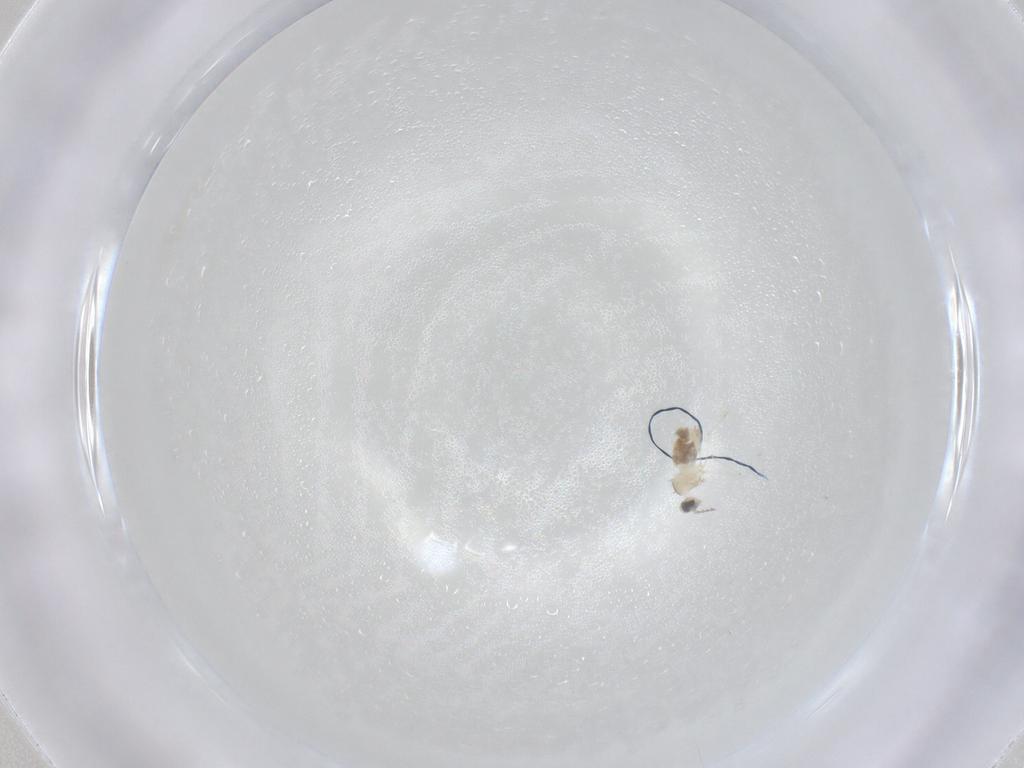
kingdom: Animalia
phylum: Arthropoda
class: Insecta
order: Diptera
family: Cecidomyiidae
